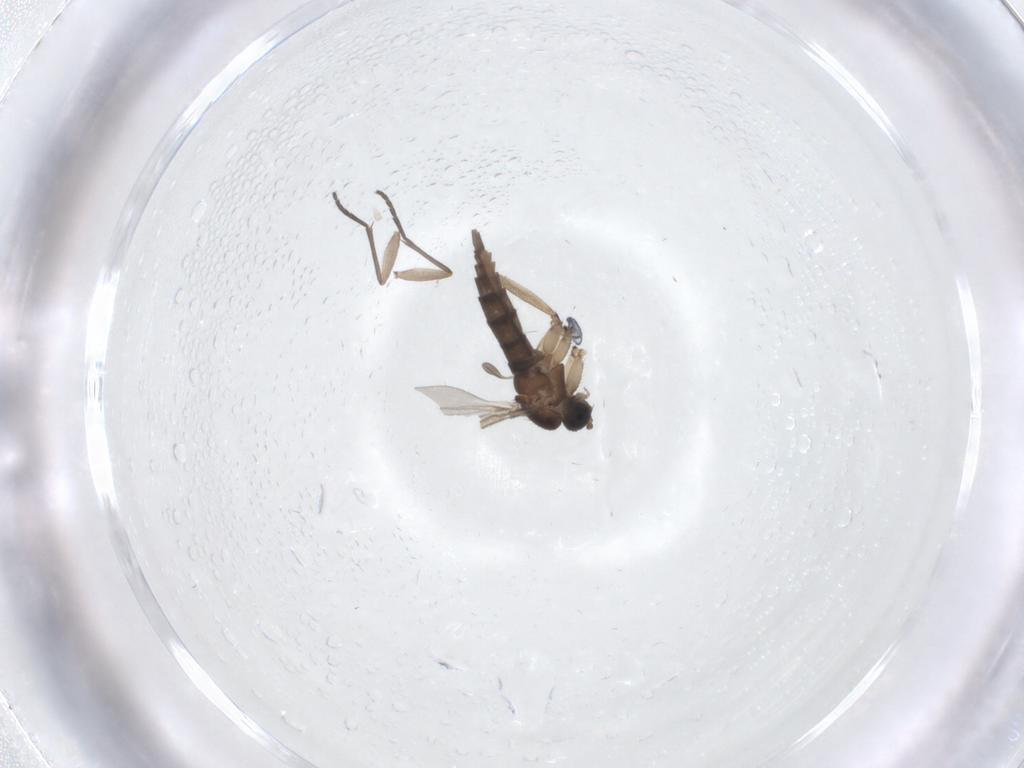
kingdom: Animalia
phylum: Arthropoda
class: Insecta
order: Diptera
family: Sciaridae
